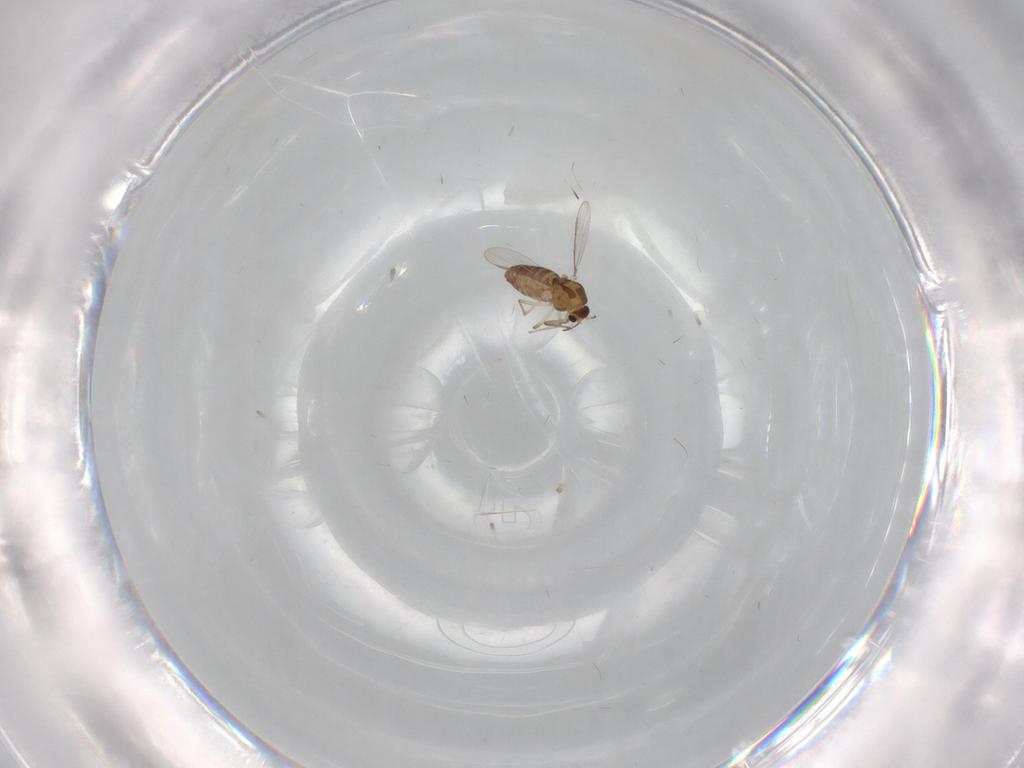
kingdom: Animalia
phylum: Arthropoda
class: Insecta
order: Diptera
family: Chironomidae
